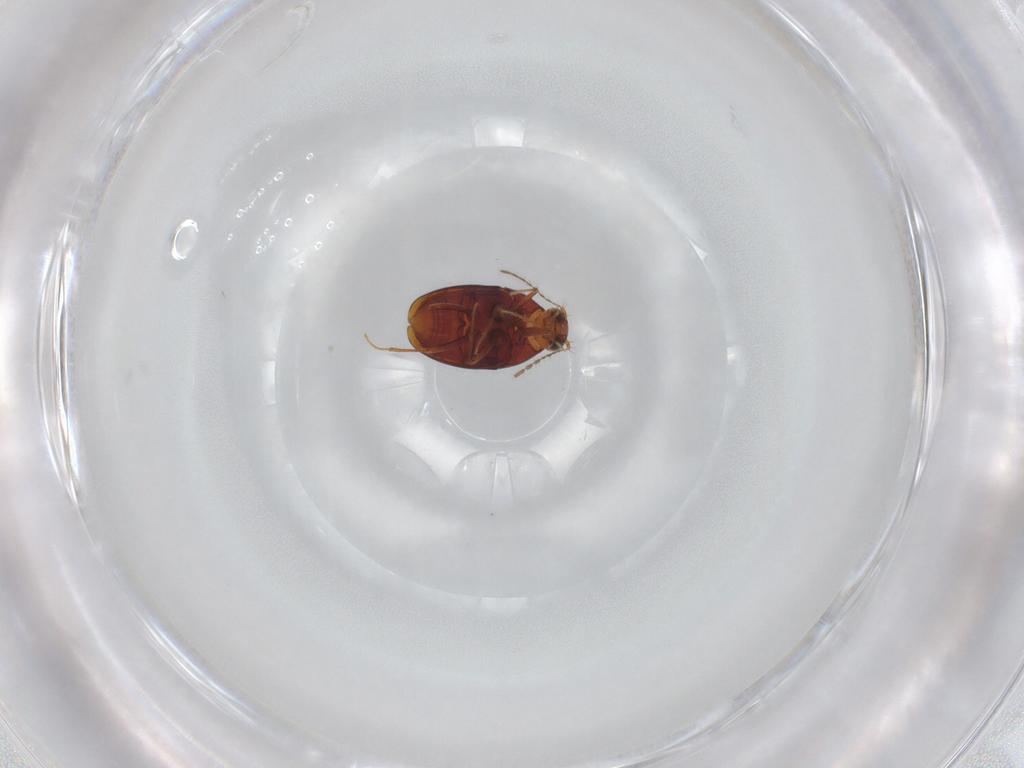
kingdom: Animalia
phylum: Arthropoda
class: Insecta
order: Coleoptera
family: Staphylinidae
